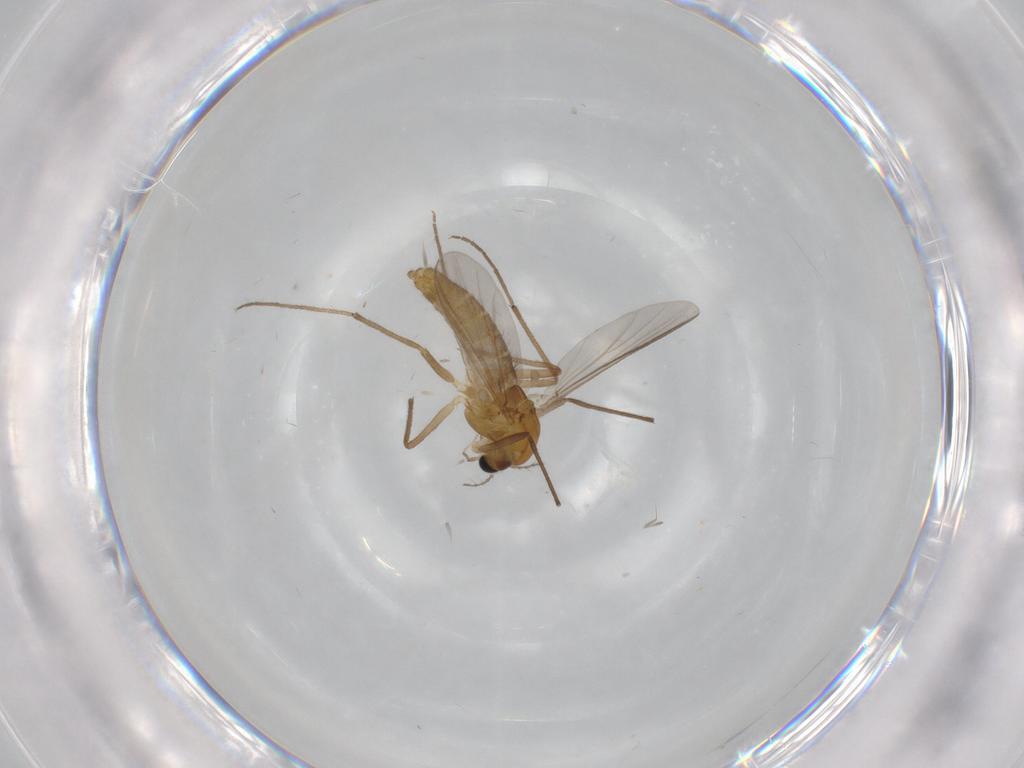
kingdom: Animalia
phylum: Arthropoda
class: Insecta
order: Diptera
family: Chironomidae
